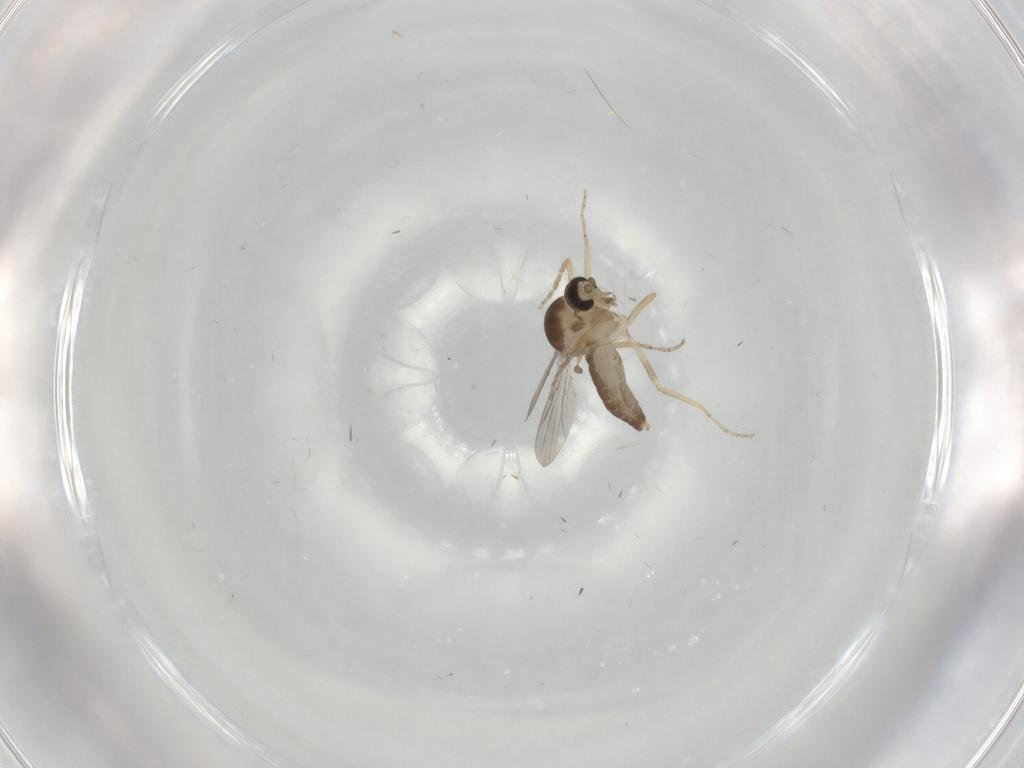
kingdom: Animalia
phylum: Arthropoda
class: Insecta
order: Diptera
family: Ceratopogonidae
